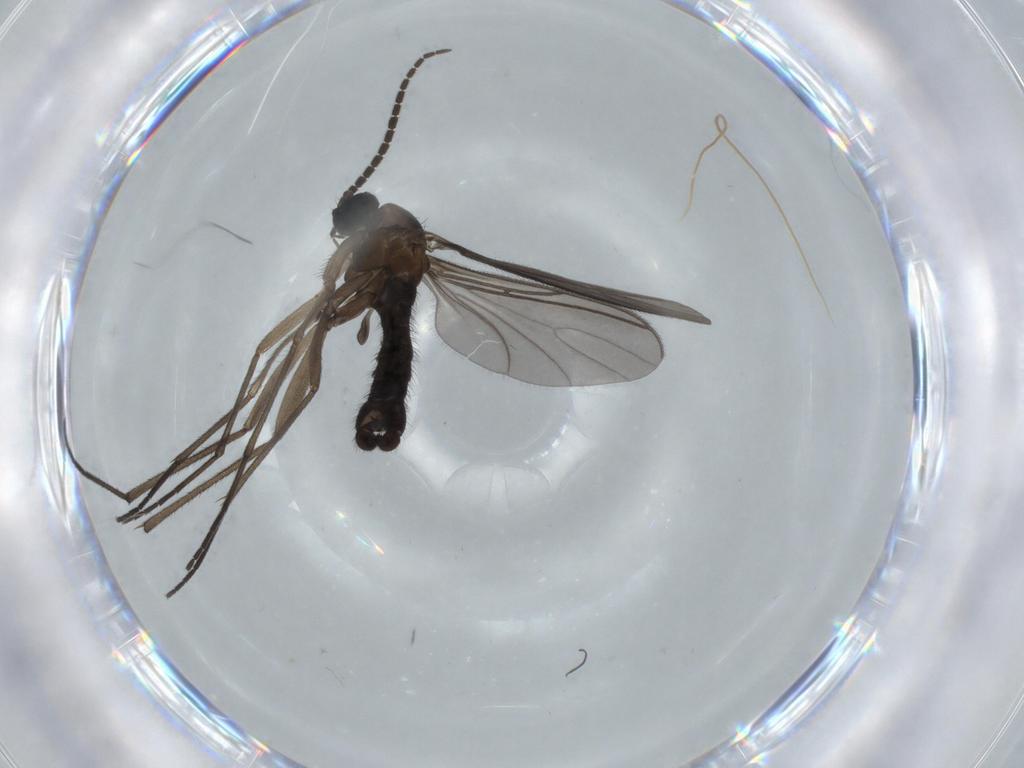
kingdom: Animalia
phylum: Arthropoda
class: Insecta
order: Diptera
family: Sciaridae
